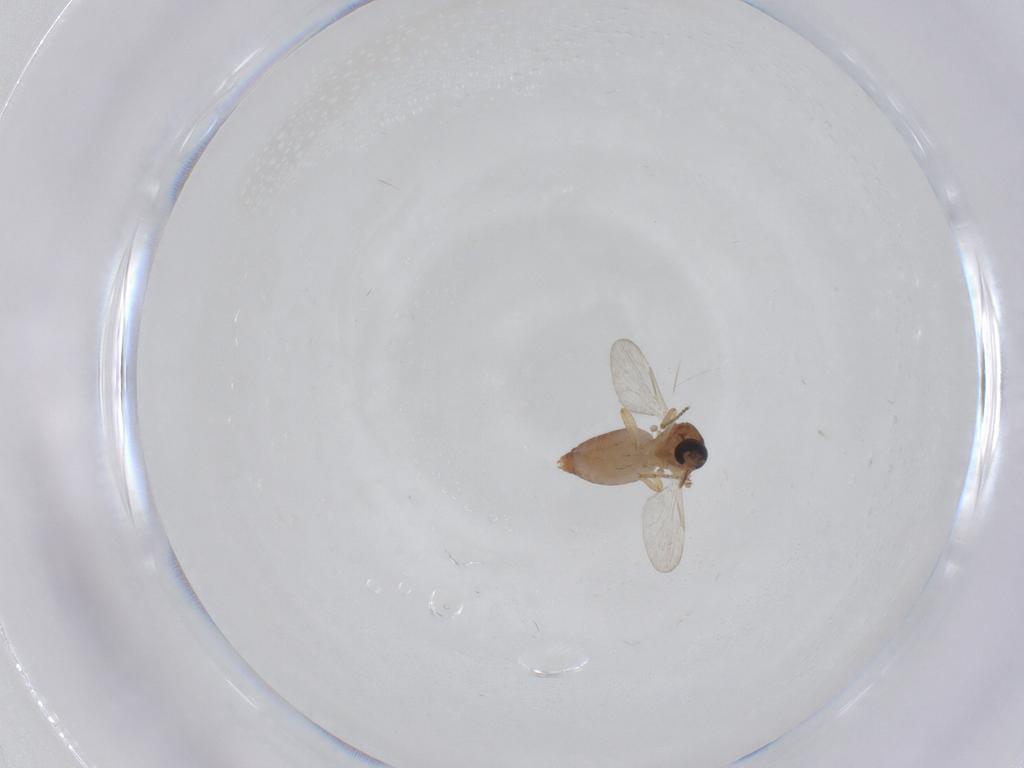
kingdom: Animalia
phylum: Arthropoda
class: Insecta
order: Diptera
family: Ceratopogonidae
